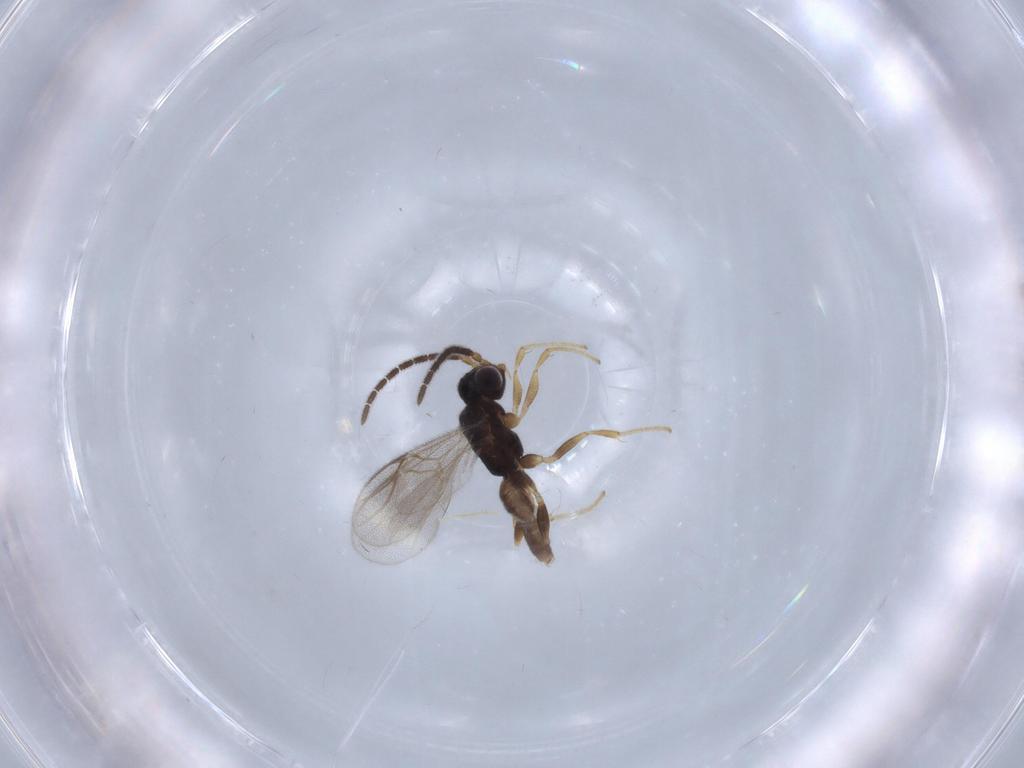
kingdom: Animalia
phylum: Arthropoda
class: Insecta
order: Hymenoptera
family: Dryinidae
